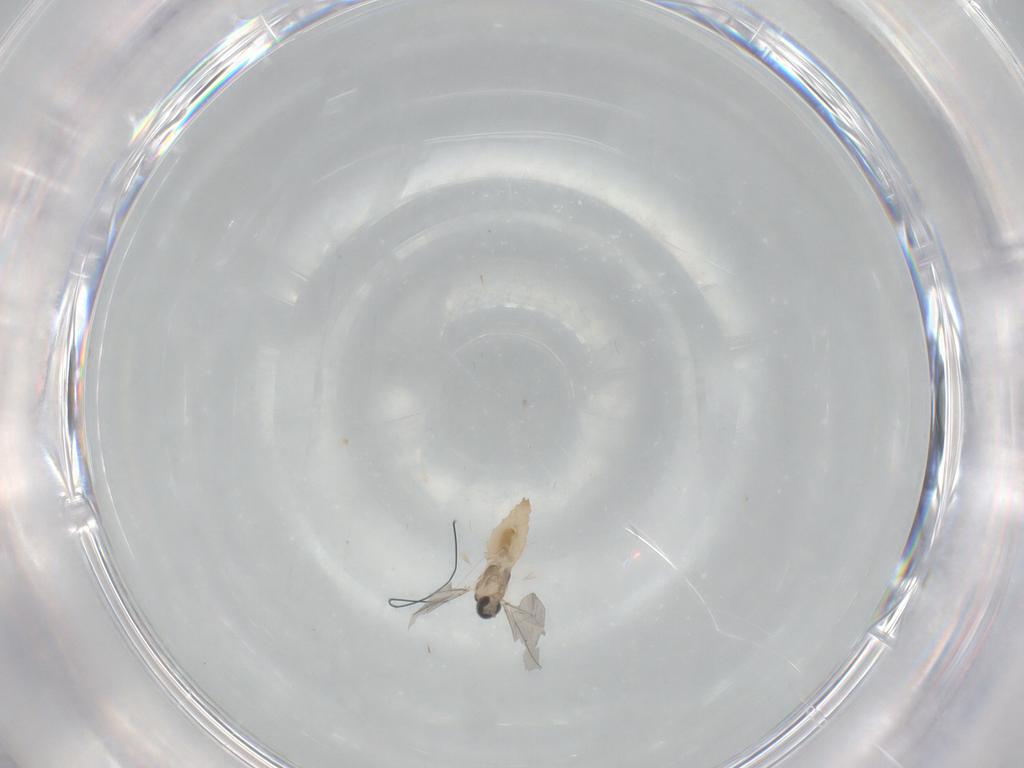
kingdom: Animalia
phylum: Arthropoda
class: Insecta
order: Diptera
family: Cecidomyiidae
